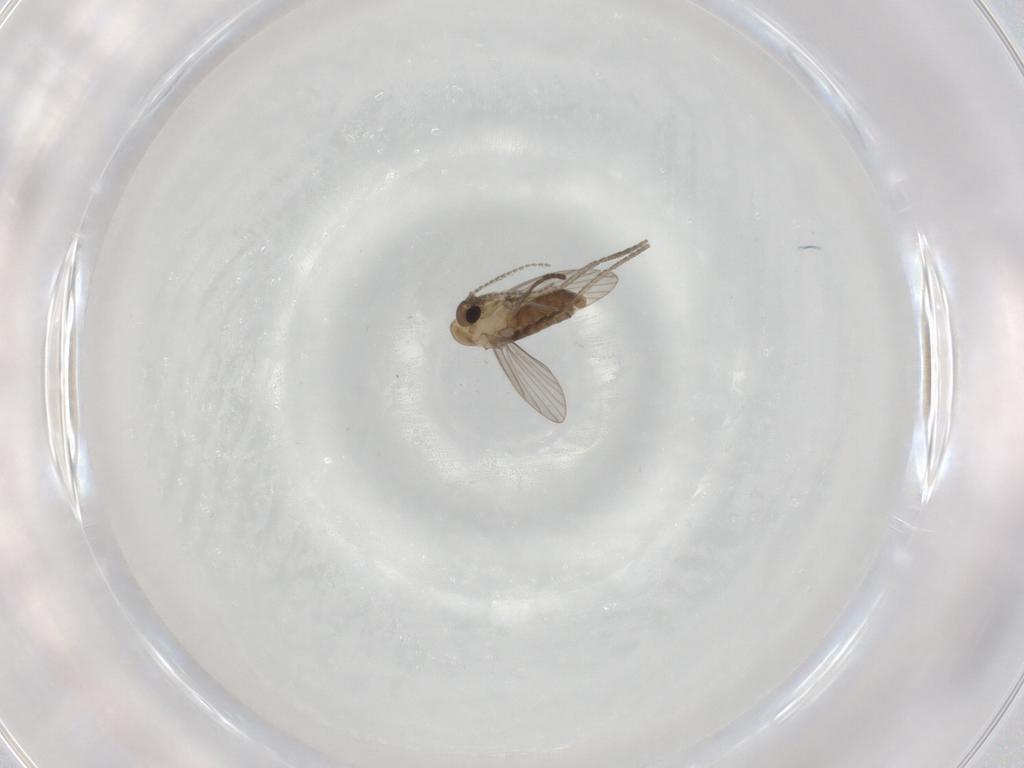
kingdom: Animalia
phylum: Arthropoda
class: Insecta
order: Diptera
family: Psychodidae
